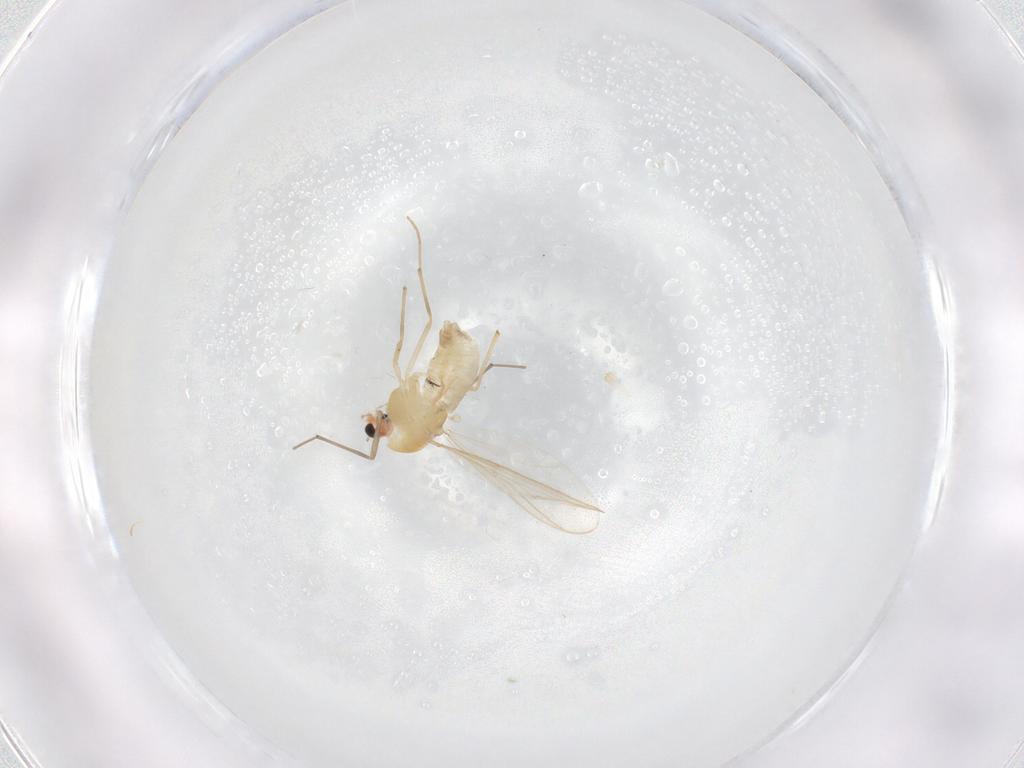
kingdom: Animalia
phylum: Arthropoda
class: Insecta
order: Diptera
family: Chironomidae
